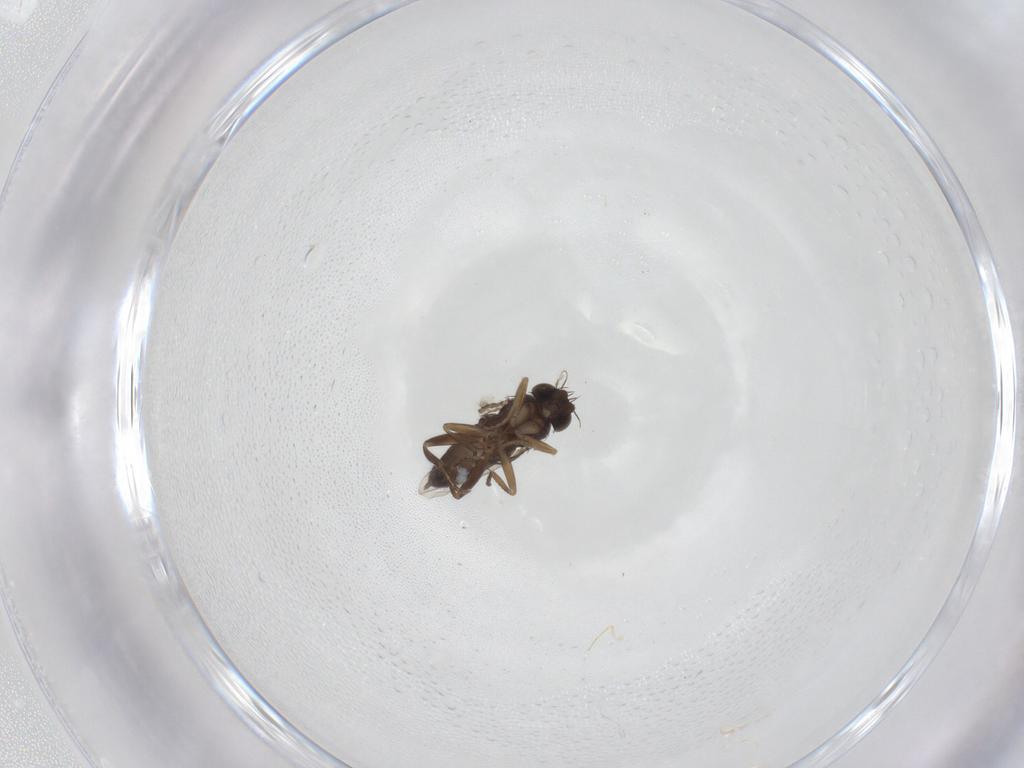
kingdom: Animalia
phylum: Arthropoda
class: Insecta
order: Diptera
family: Phoridae
